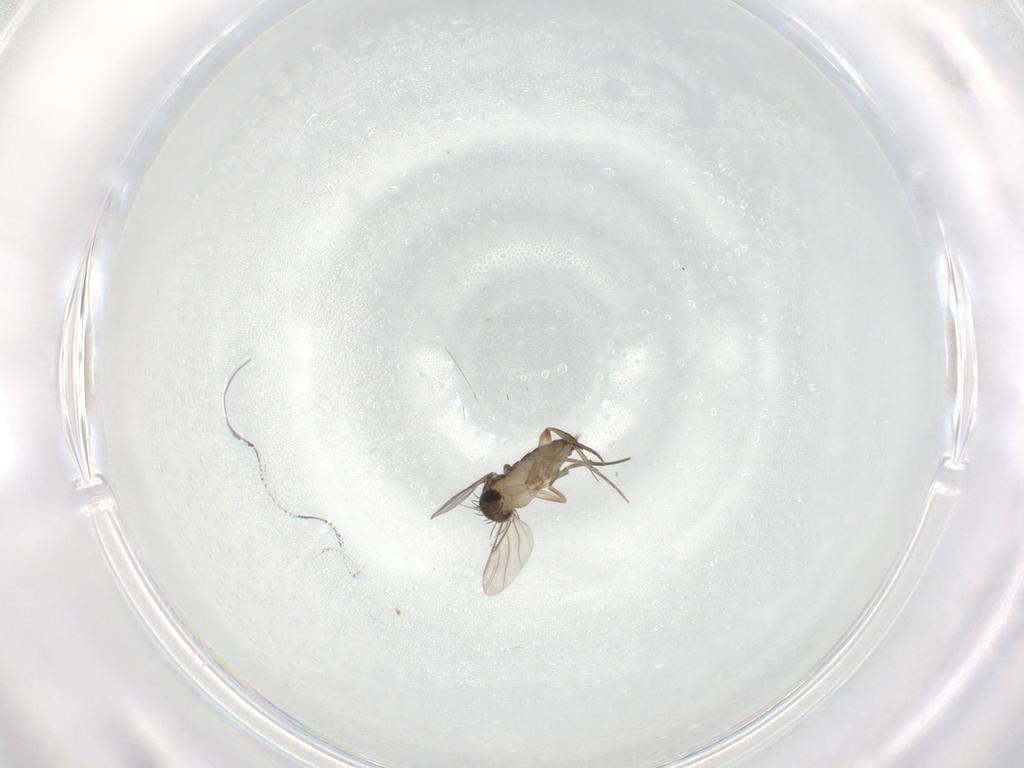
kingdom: Animalia
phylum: Arthropoda
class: Insecta
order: Diptera
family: Phoridae
